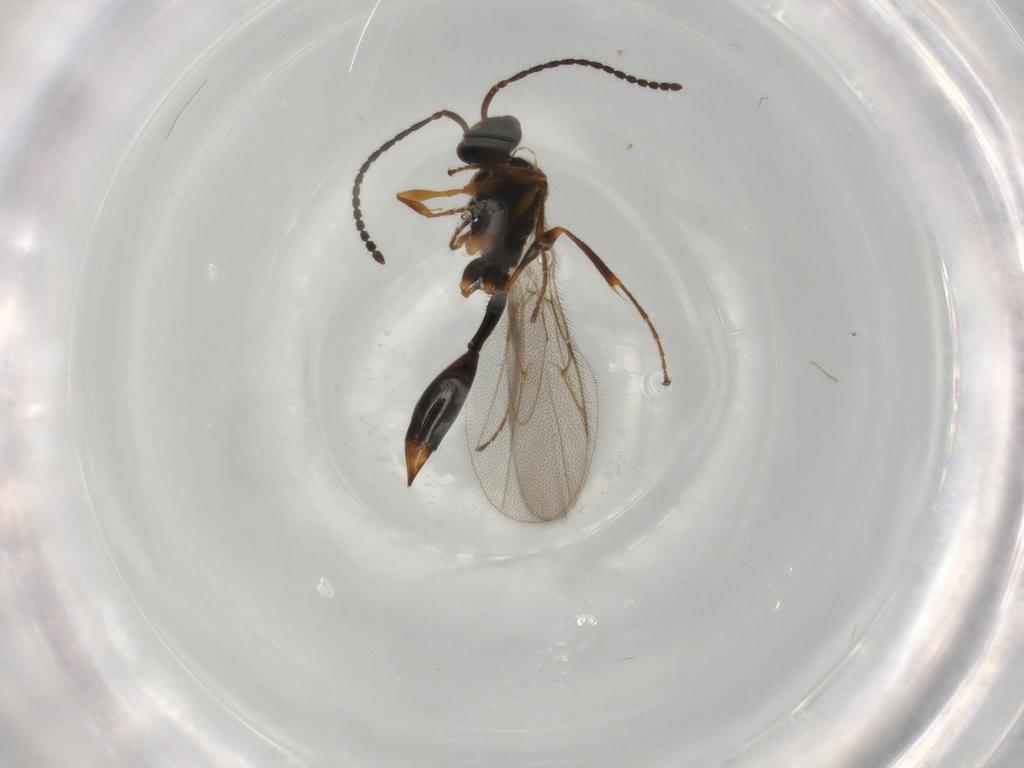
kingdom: Animalia
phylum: Arthropoda
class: Insecta
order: Hymenoptera
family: Diapriidae
